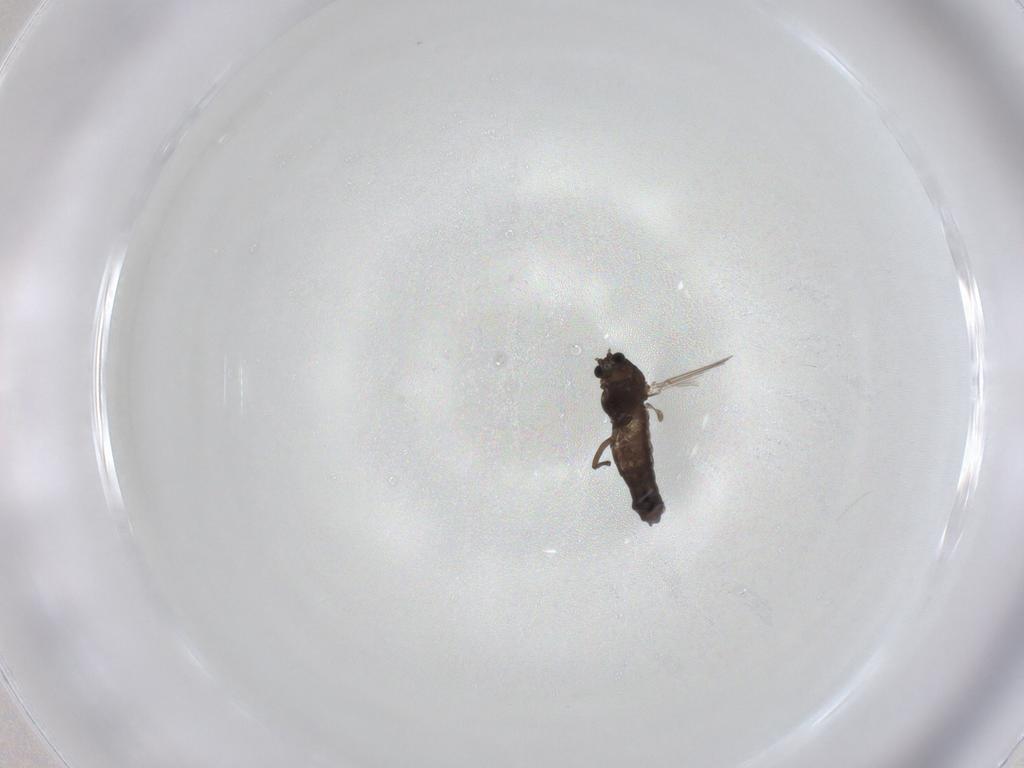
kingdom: Animalia
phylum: Arthropoda
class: Insecta
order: Diptera
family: Chironomidae
